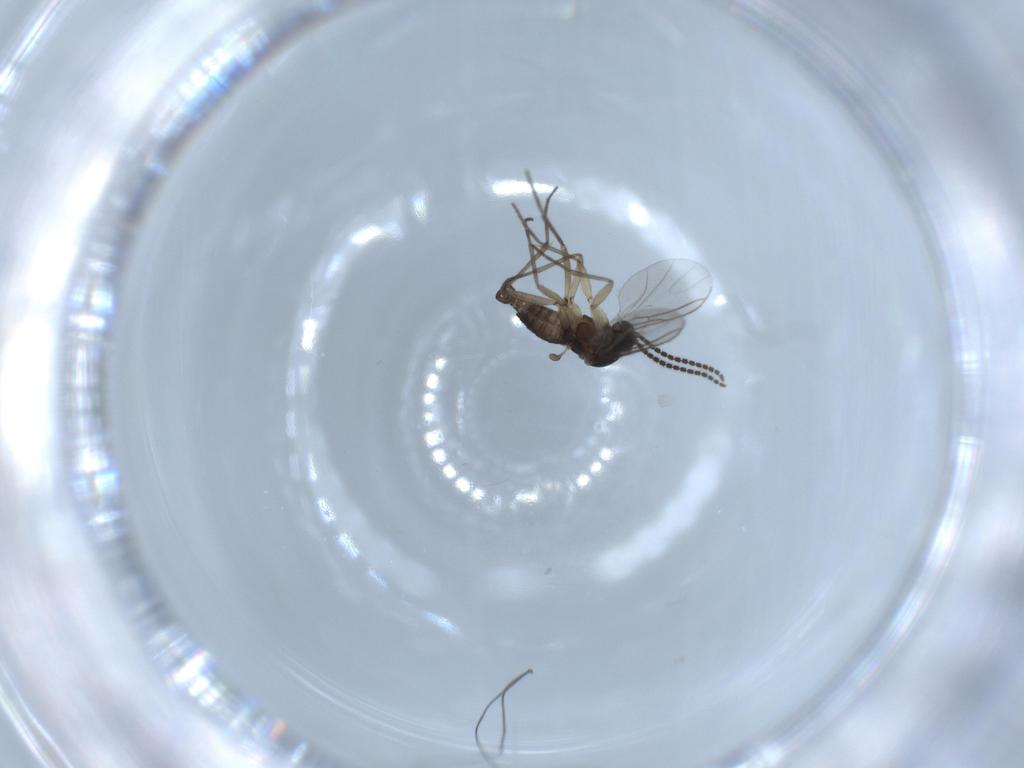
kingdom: Animalia
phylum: Arthropoda
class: Insecta
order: Diptera
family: Sciaridae
